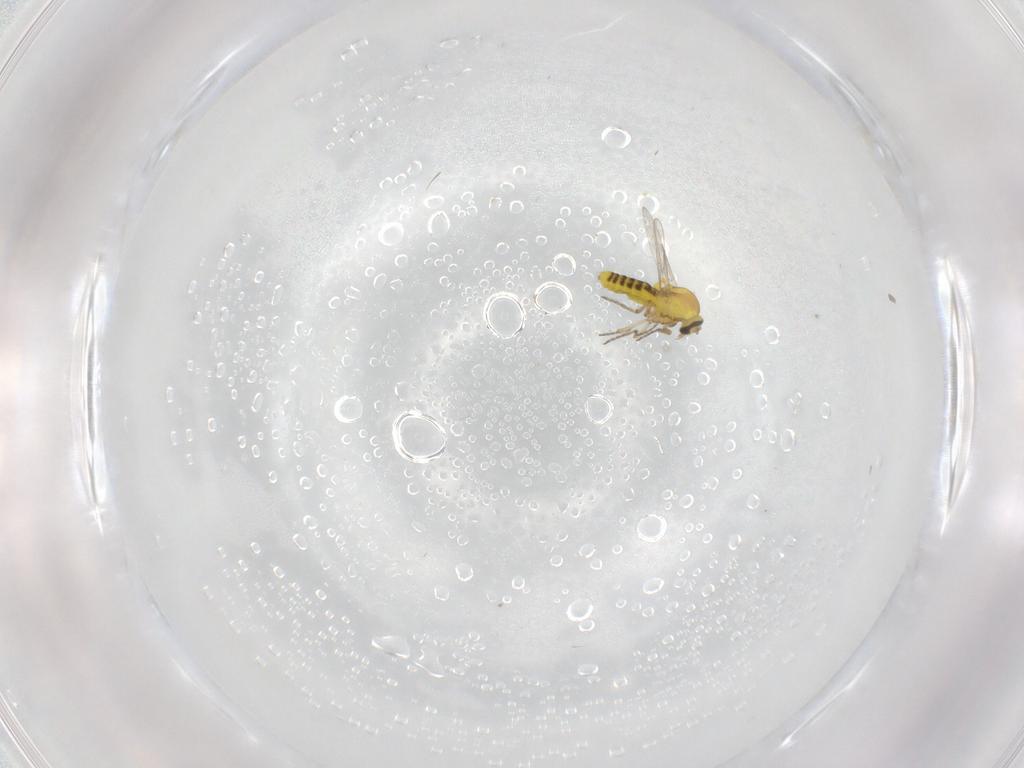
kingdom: Animalia
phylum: Arthropoda
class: Insecta
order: Diptera
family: Ceratopogonidae
